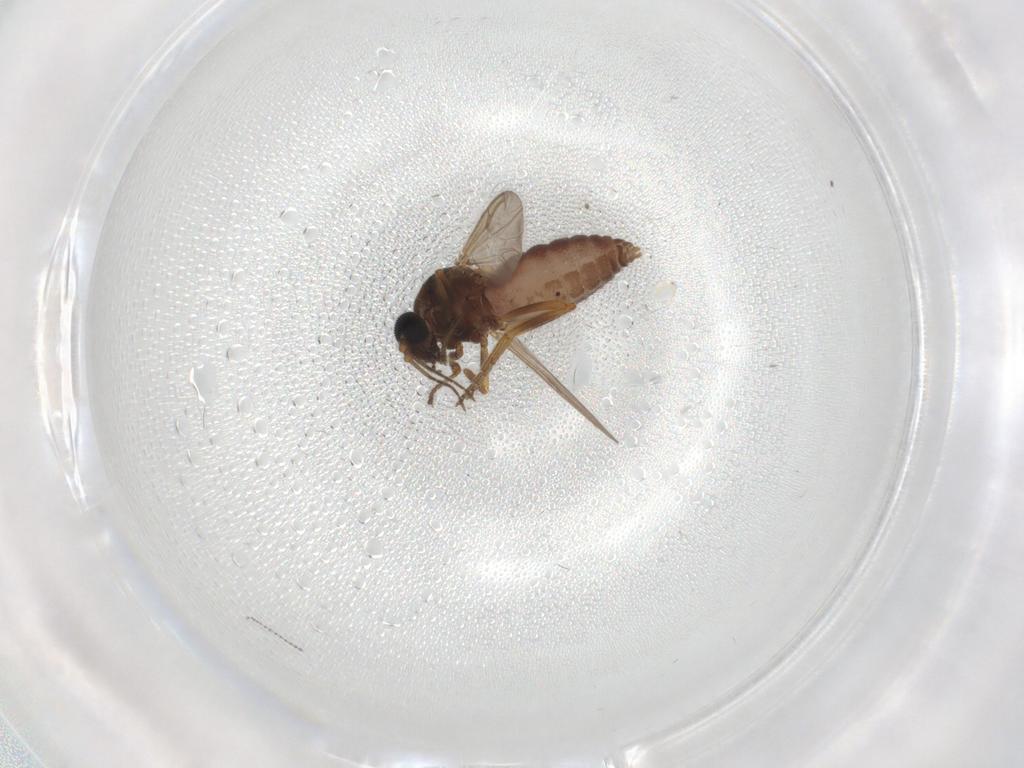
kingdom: Animalia
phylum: Arthropoda
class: Insecta
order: Diptera
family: Ceratopogonidae
